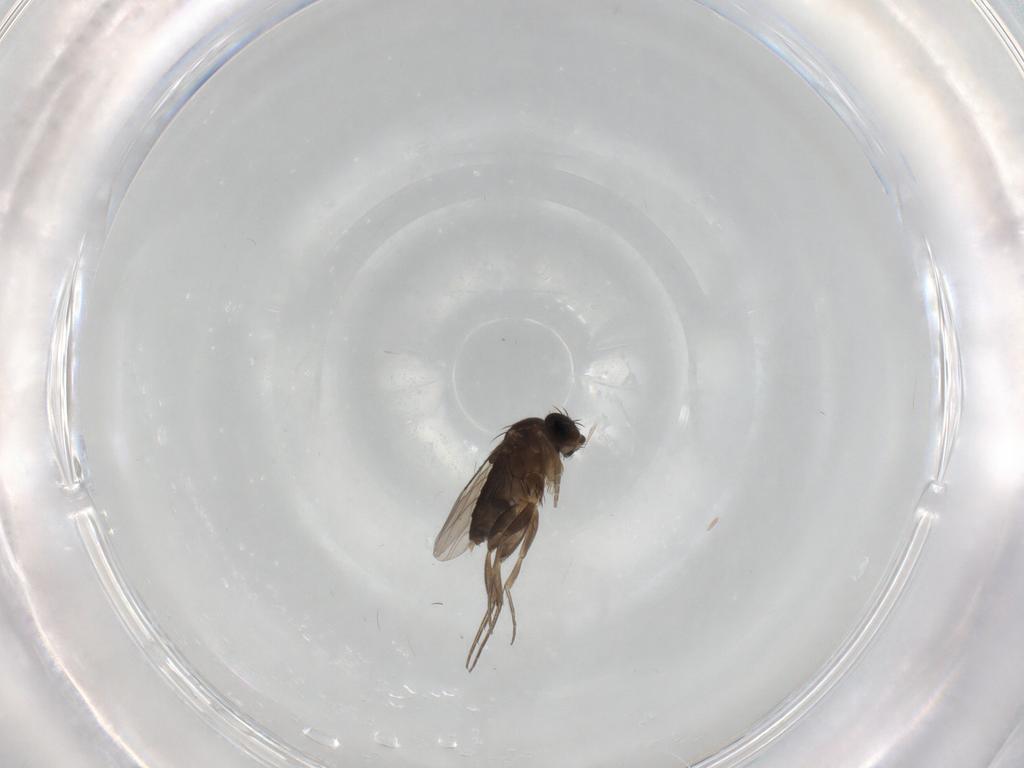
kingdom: Animalia
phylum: Arthropoda
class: Insecta
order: Diptera
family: Phoridae
